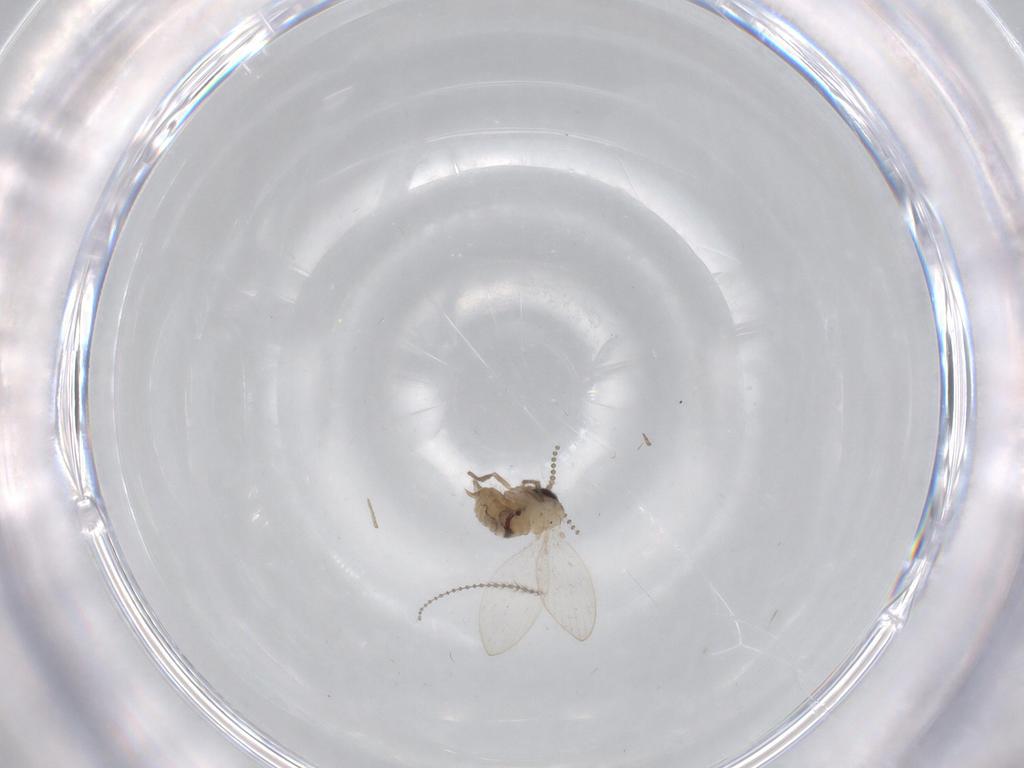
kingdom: Animalia
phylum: Arthropoda
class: Insecta
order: Diptera
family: Psychodidae
